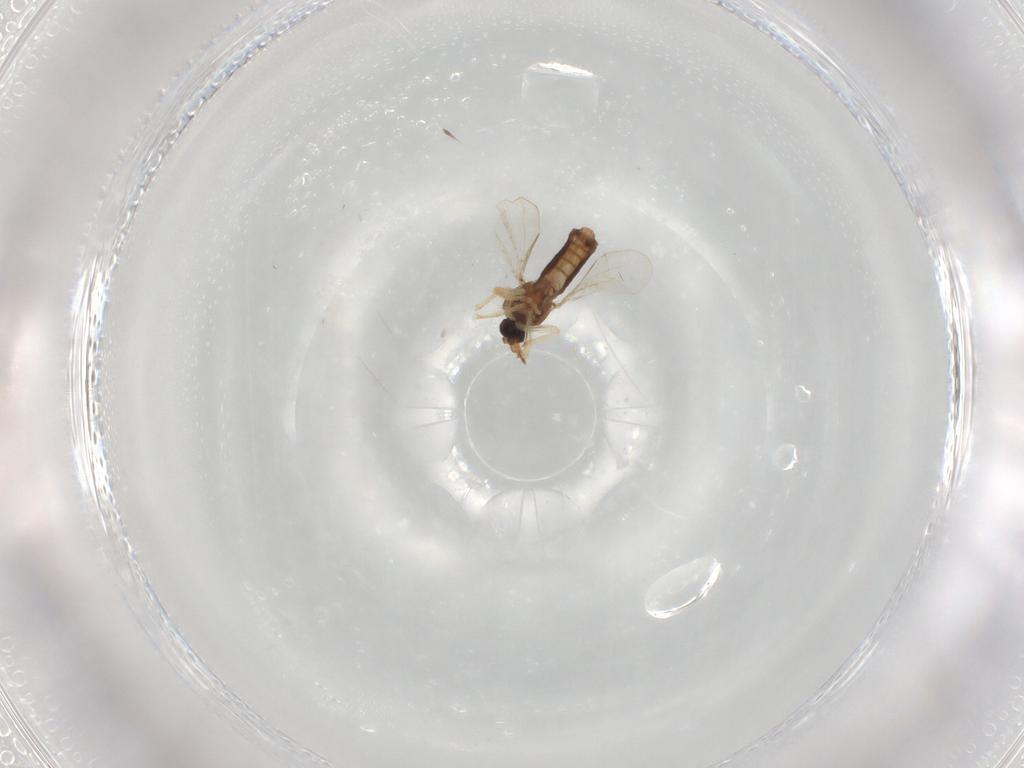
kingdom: Animalia
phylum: Arthropoda
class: Insecta
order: Diptera
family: Ceratopogonidae
